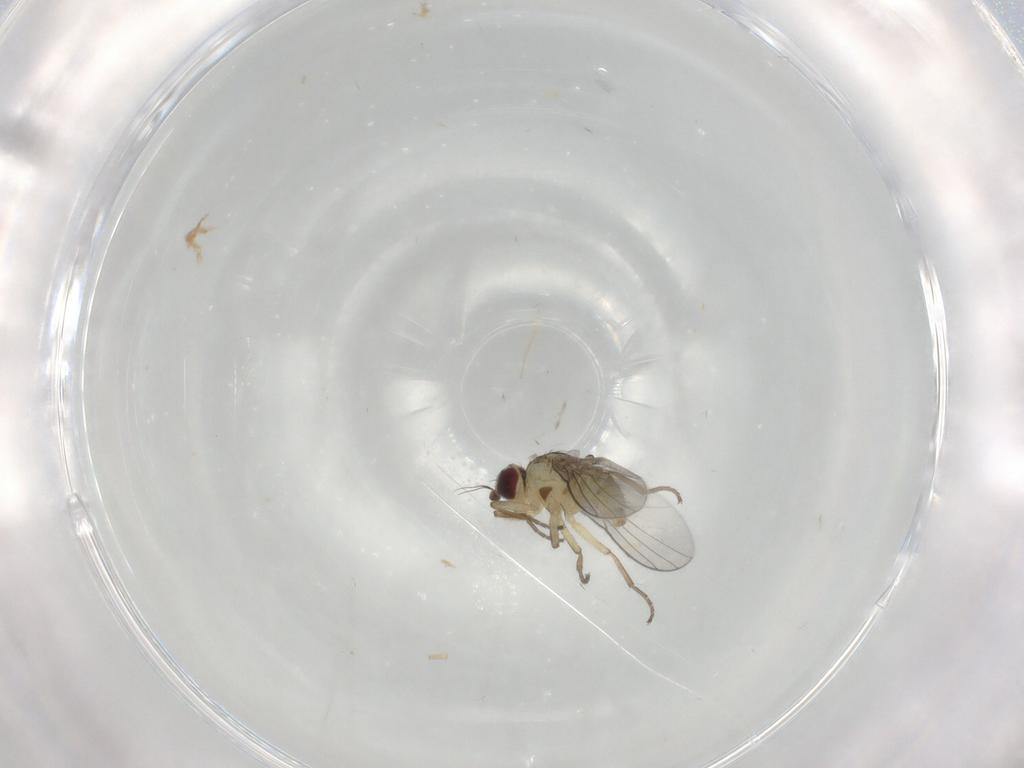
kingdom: Animalia
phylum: Arthropoda
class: Insecta
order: Diptera
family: Agromyzidae
